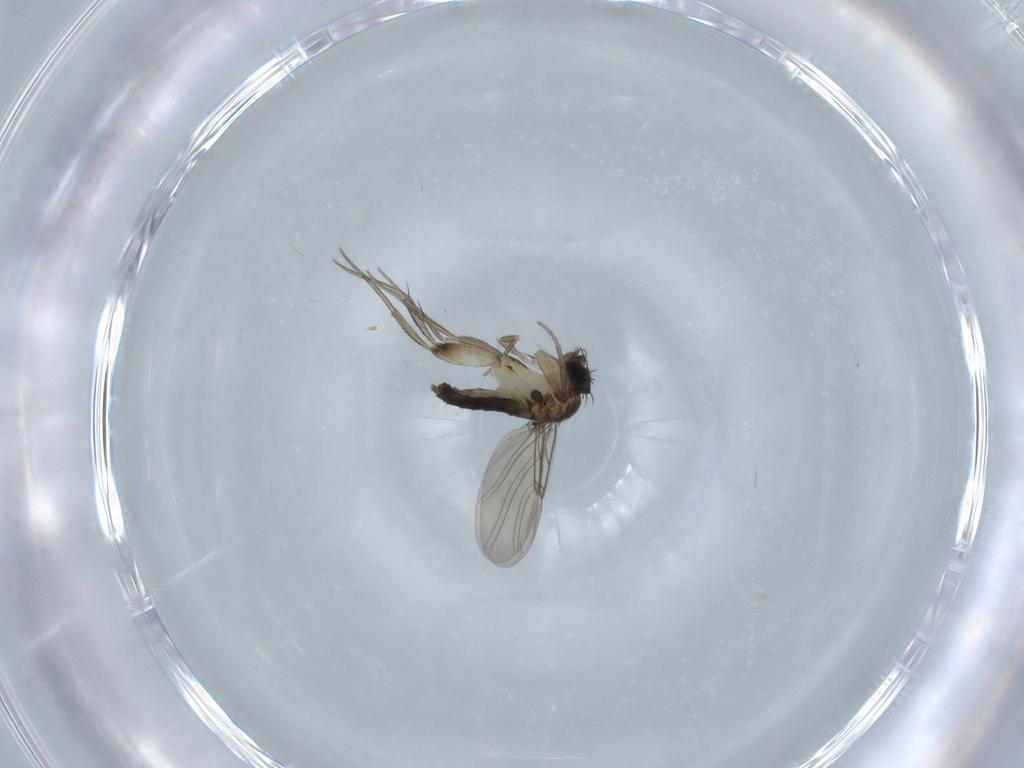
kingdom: Animalia
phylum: Arthropoda
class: Insecta
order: Diptera
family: Phoridae
